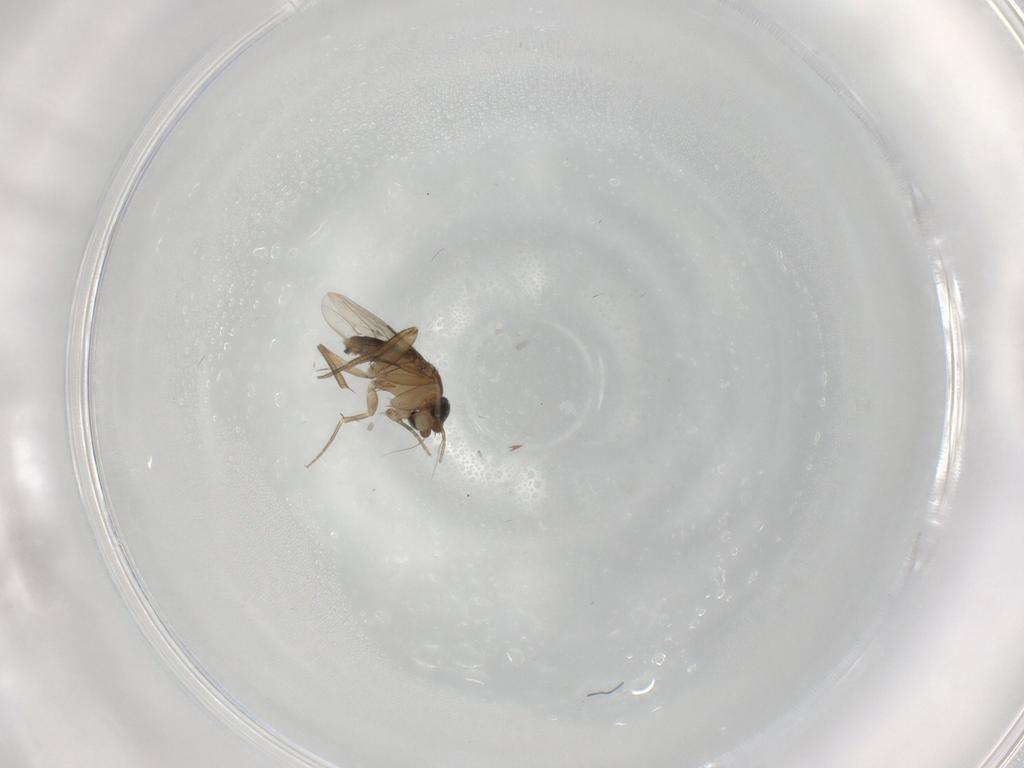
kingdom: Animalia
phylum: Arthropoda
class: Insecta
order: Diptera
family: Phoridae
